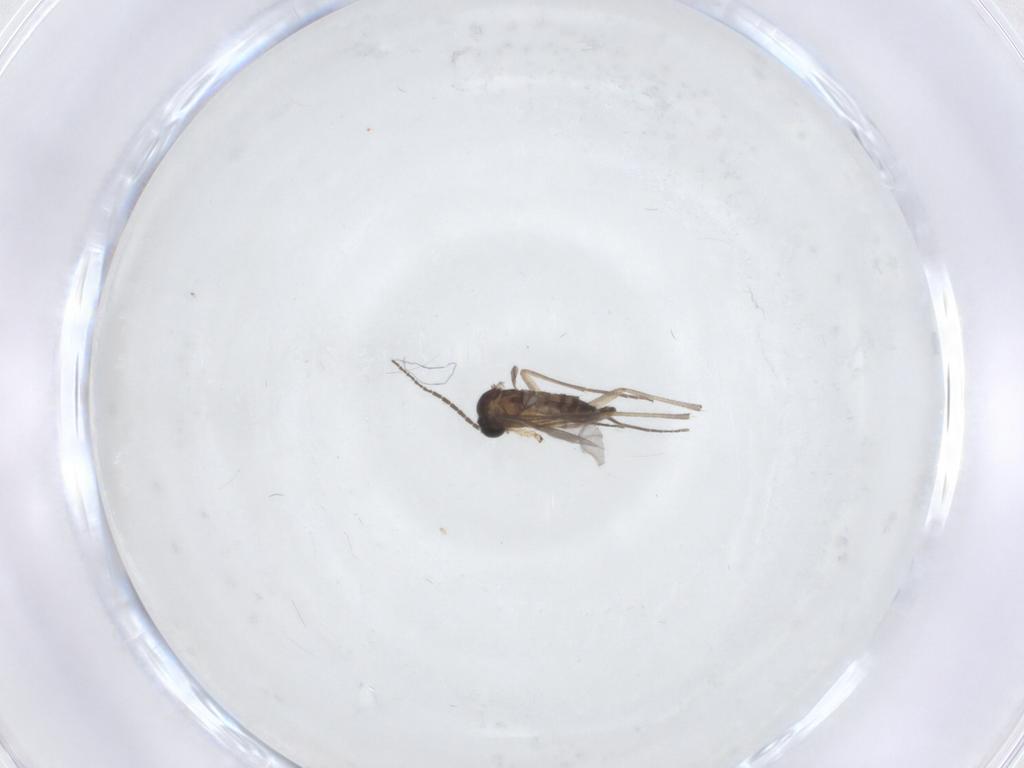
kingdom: Animalia
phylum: Arthropoda
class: Insecta
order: Diptera
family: Sciaridae
